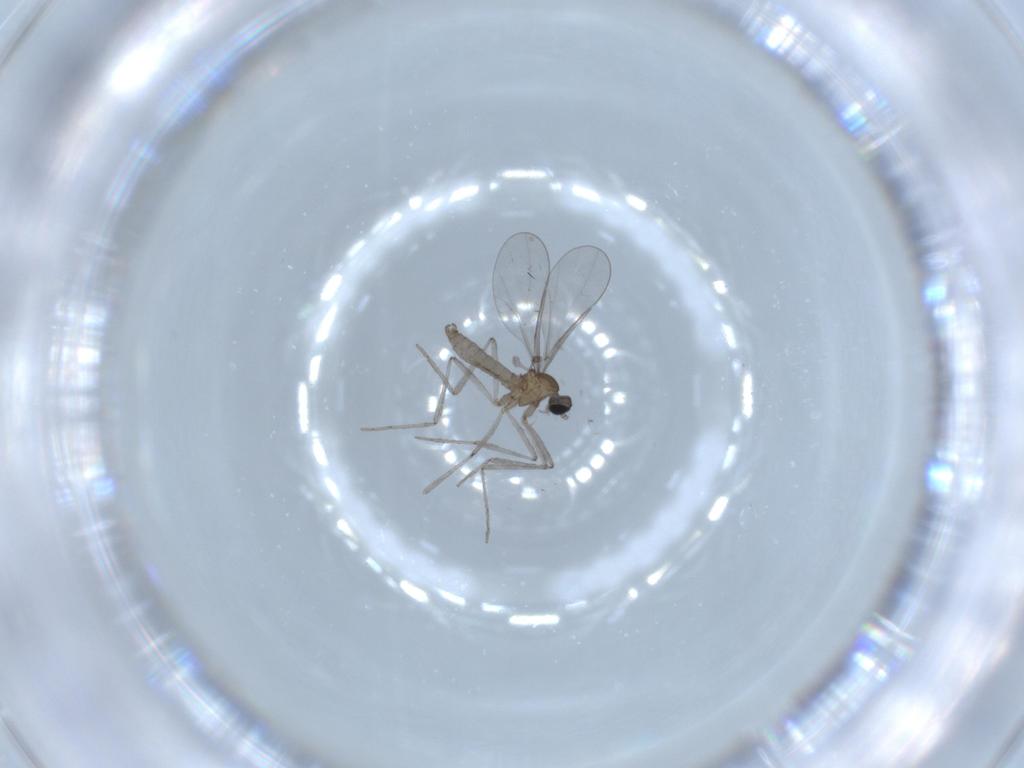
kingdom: Animalia
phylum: Arthropoda
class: Insecta
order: Diptera
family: Cecidomyiidae
